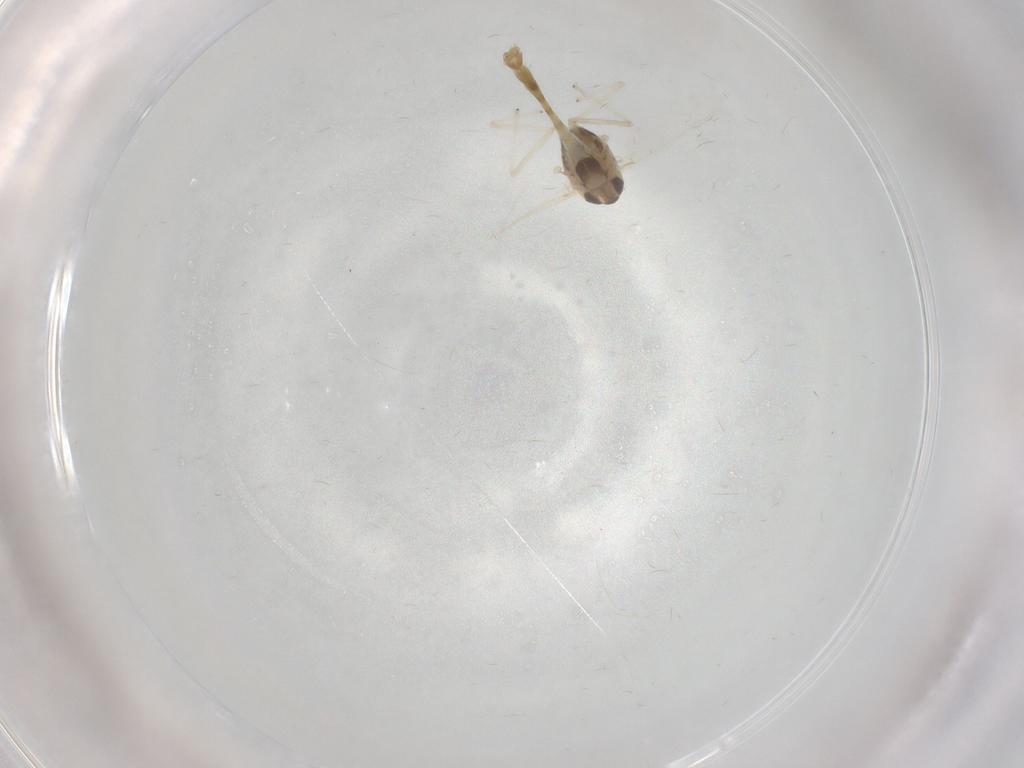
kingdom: Animalia
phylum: Arthropoda
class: Insecta
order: Diptera
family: Chironomidae
